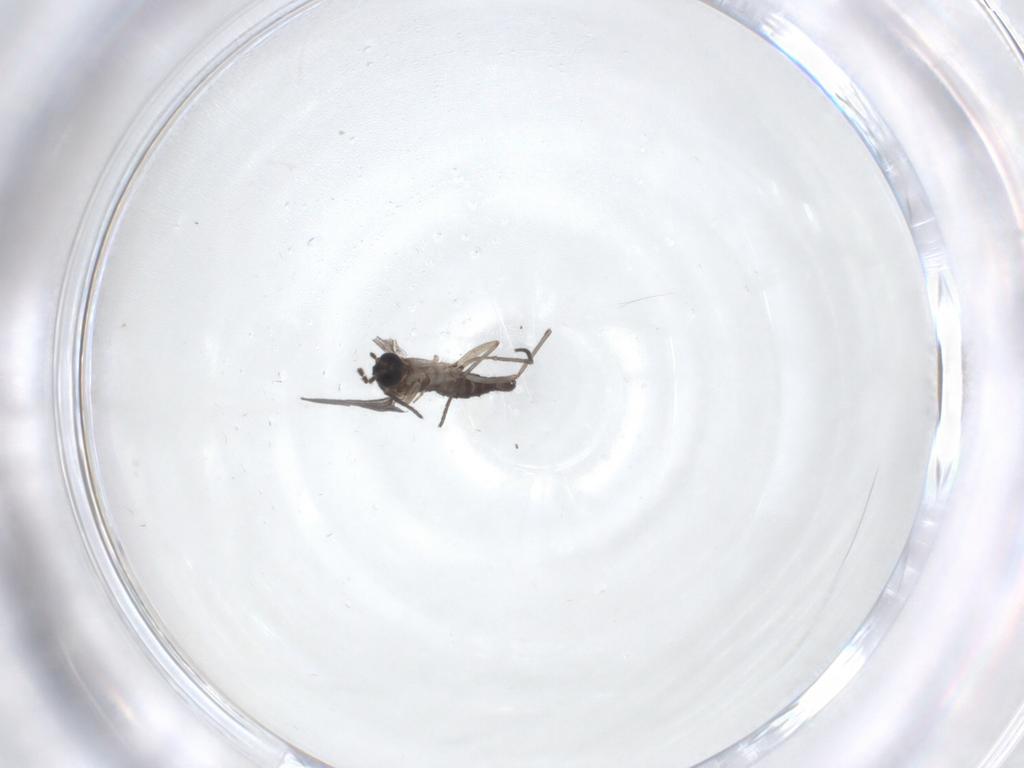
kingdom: Animalia
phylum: Arthropoda
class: Insecta
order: Diptera
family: Sciaridae
